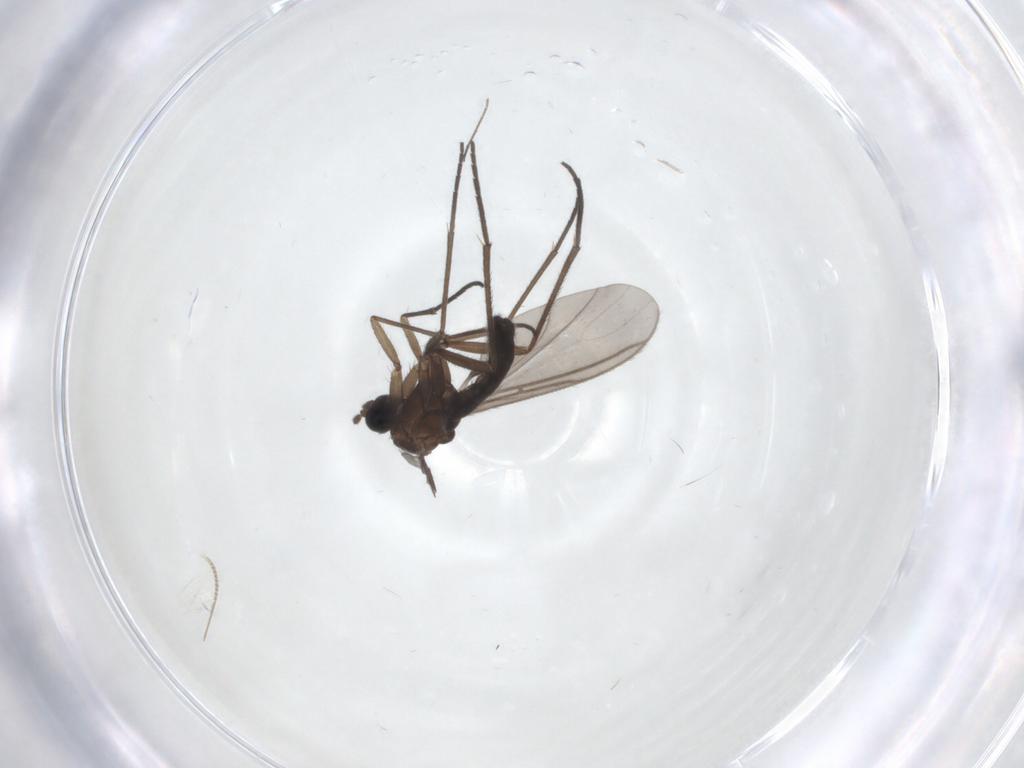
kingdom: Animalia
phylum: Arthropoda
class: Insecta
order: Diptera
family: Sciaridae
